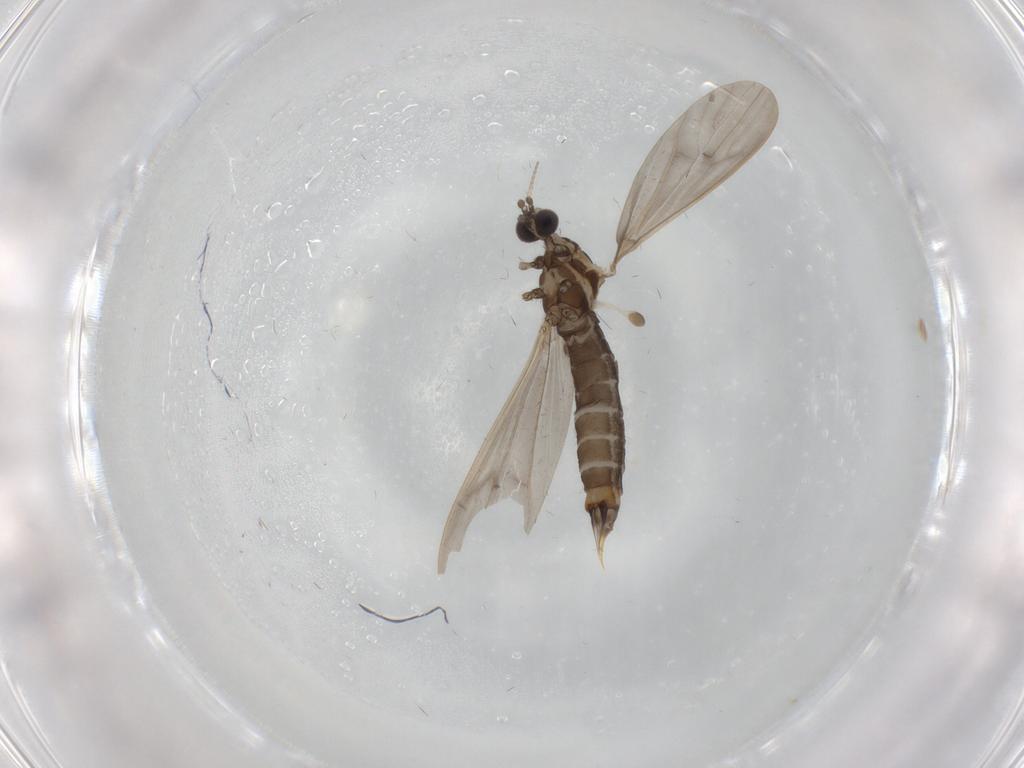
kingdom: Animalia
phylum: Arthropoda
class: Insecta
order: Diptera
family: Limoniidae
